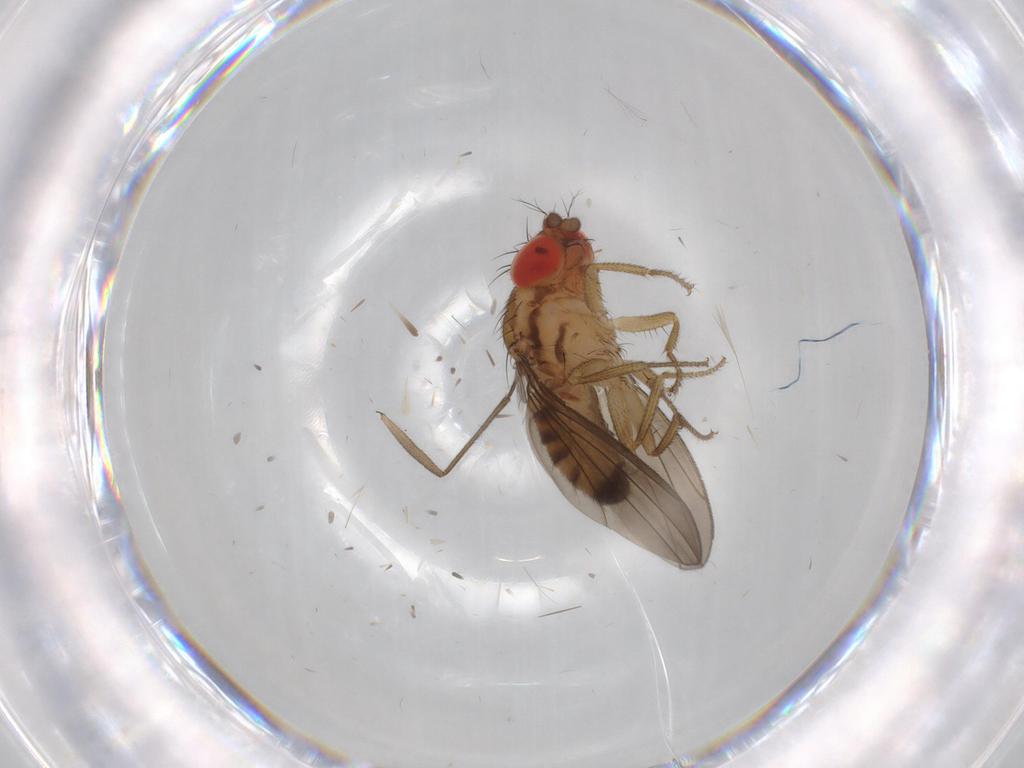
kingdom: Animalia
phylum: Arthropoda
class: Insecta
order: Diptera
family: Drosophilidae
